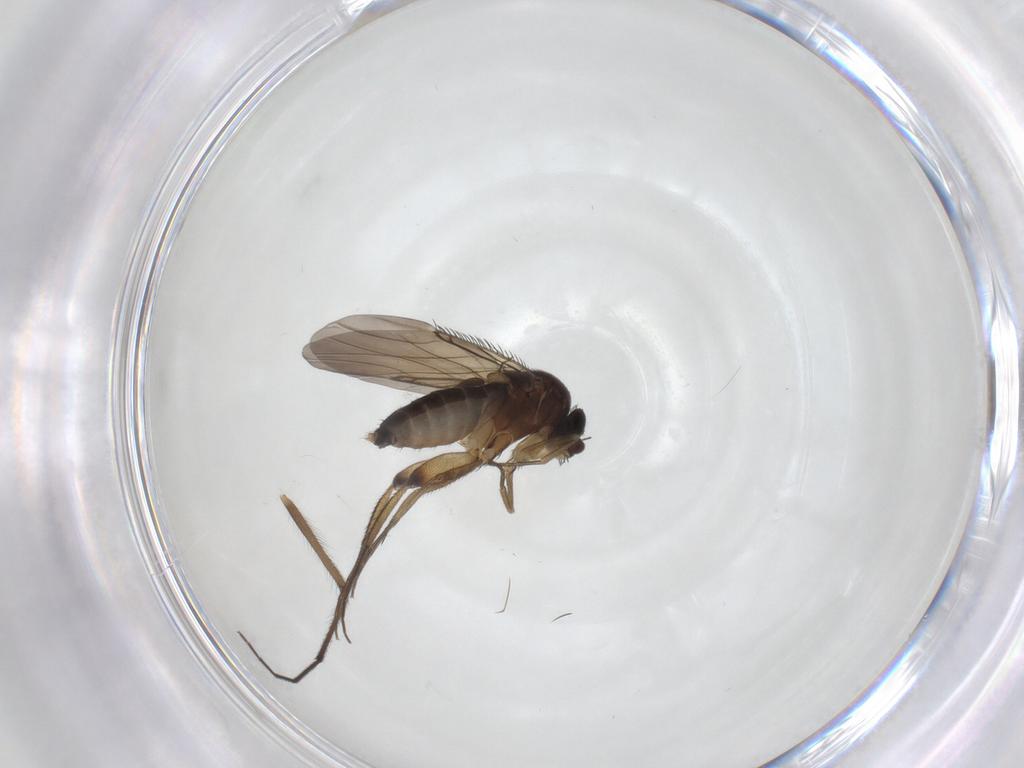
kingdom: Animalia
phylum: Arthropoda
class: Insecta
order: Diptera
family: Chironomidae
